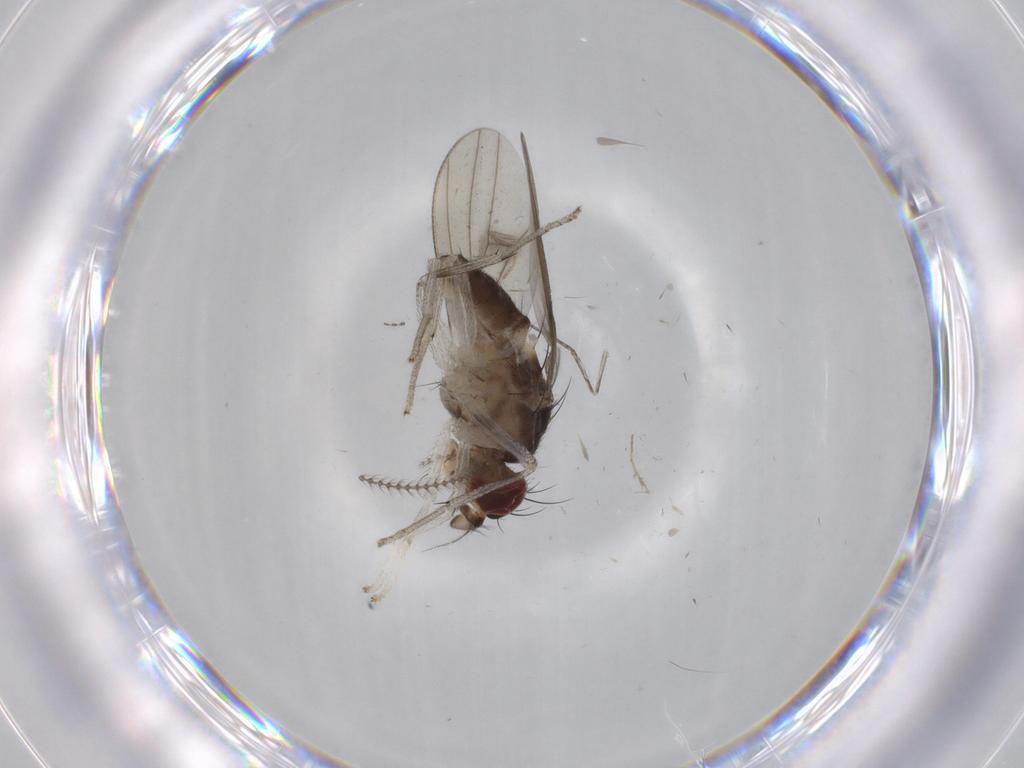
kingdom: Animalia
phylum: Arthropoda
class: Insecta
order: Diptera
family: Cecidomyiidae
